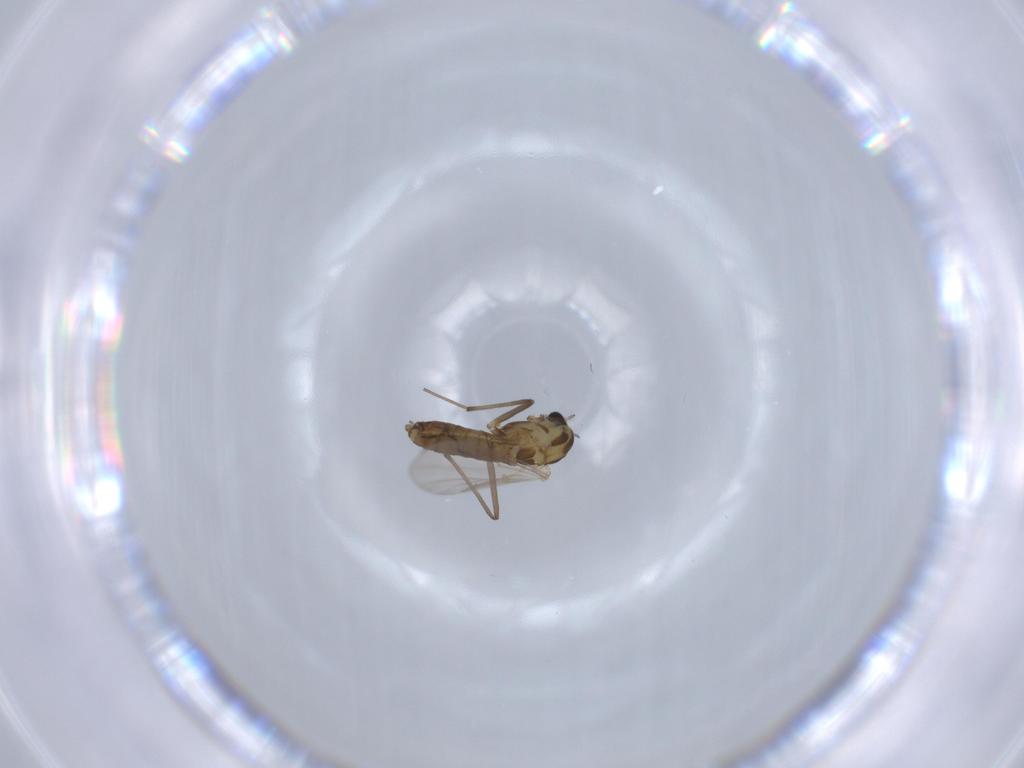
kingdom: Animalia
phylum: Arthropoda
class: Insecta
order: Diptera
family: Chironomidae
